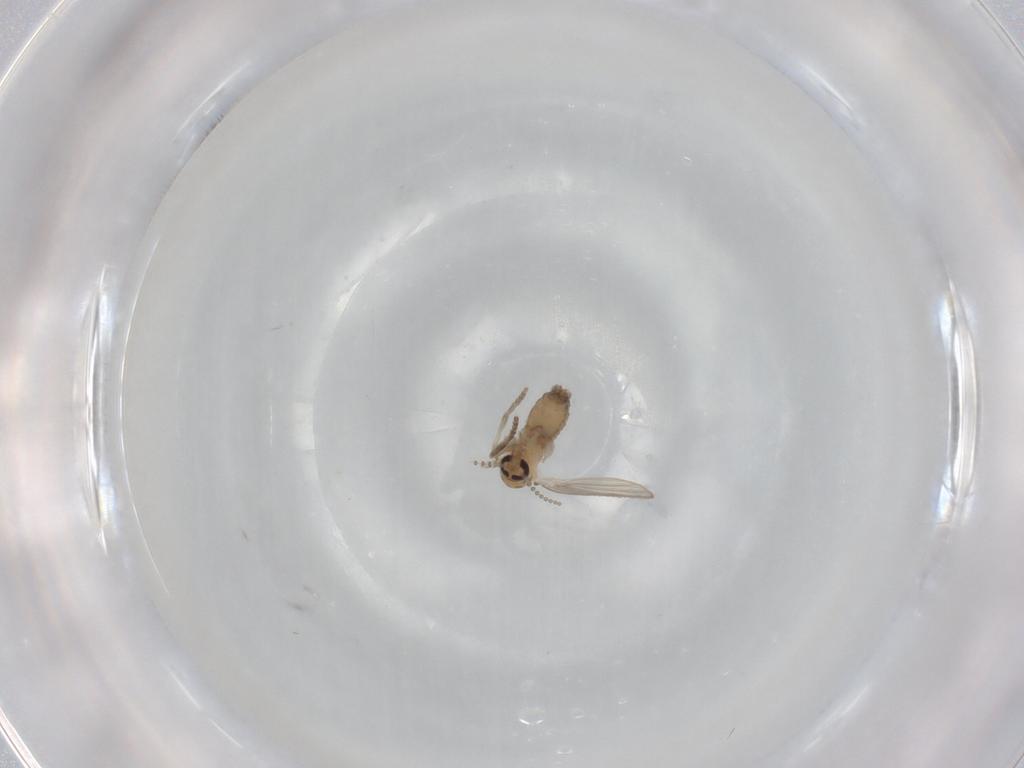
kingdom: Animalia
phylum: Arthropoda
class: Insecta
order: Diptera
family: Psychodidae
